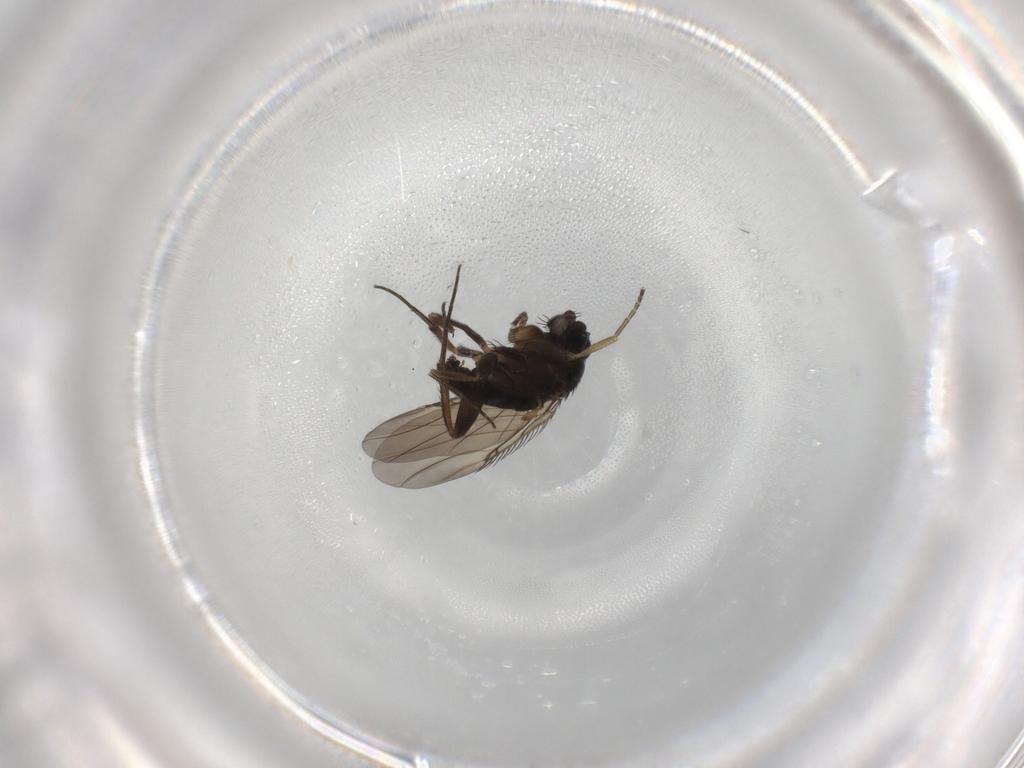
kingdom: Animalia
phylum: Arthropoda
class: Insecta
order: Diptera
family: Phoridae
